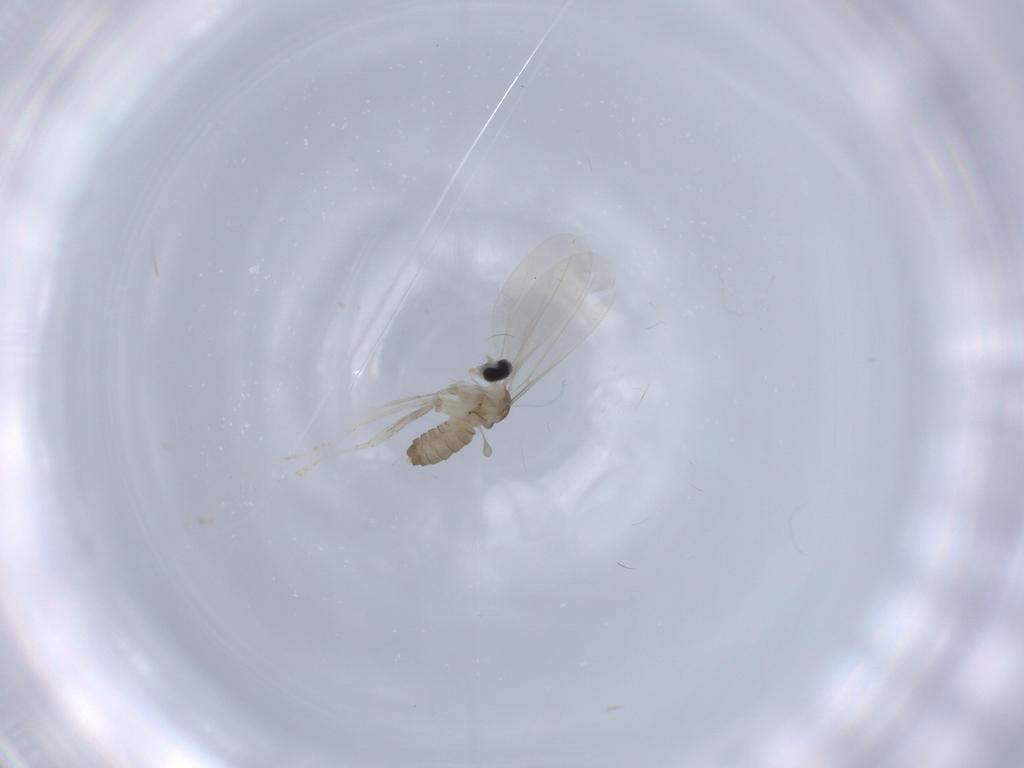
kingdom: Animalia
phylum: Arthropoda
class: Insecta
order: Diptera
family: Cecidomyiidae
